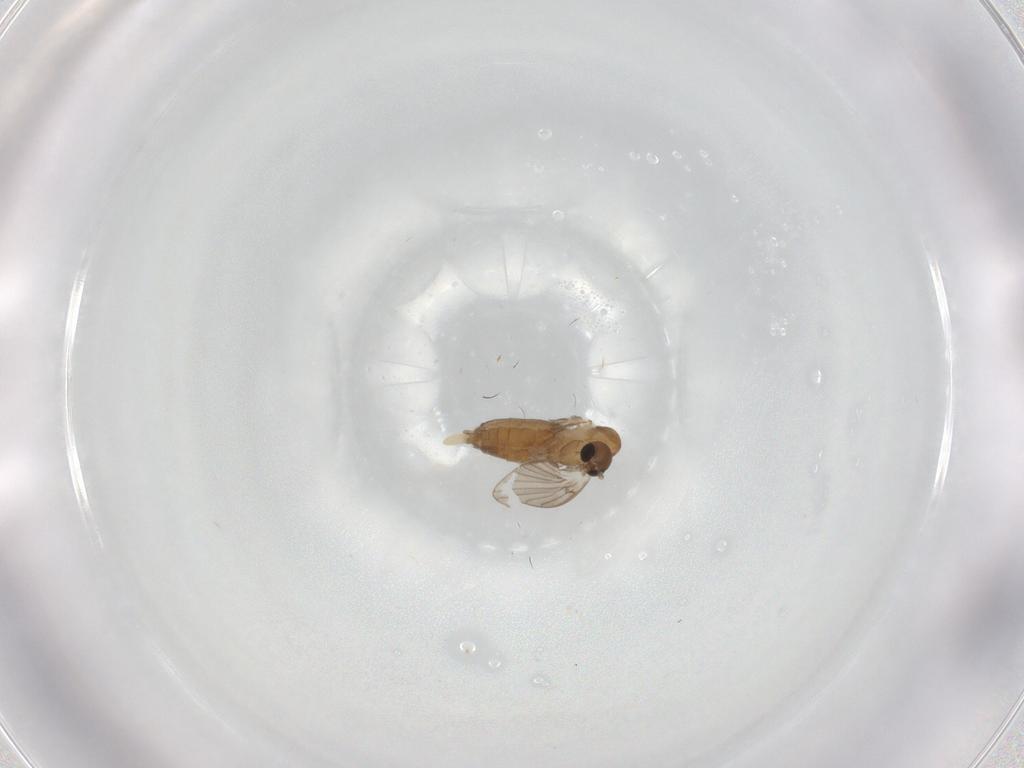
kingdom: Animalia
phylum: Arthropoda
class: Insecta
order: Diptera
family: Psychodidae
